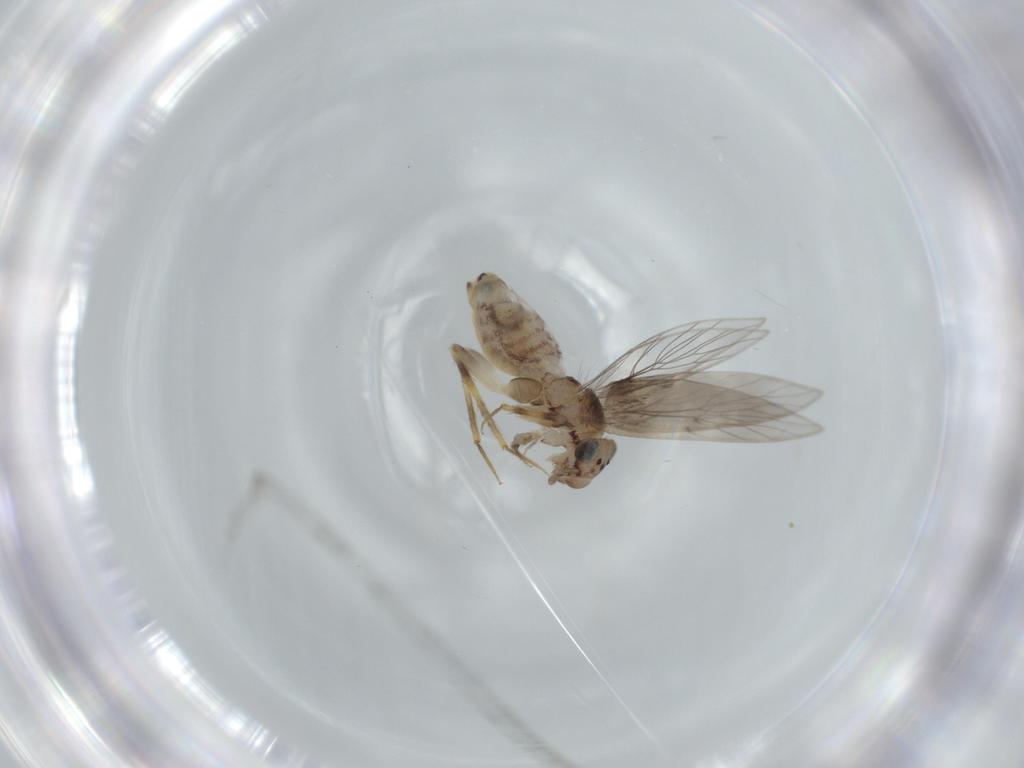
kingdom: Animalia
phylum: Arthropoda
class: Insecta
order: Psocodea
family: Lepidopsocidae
